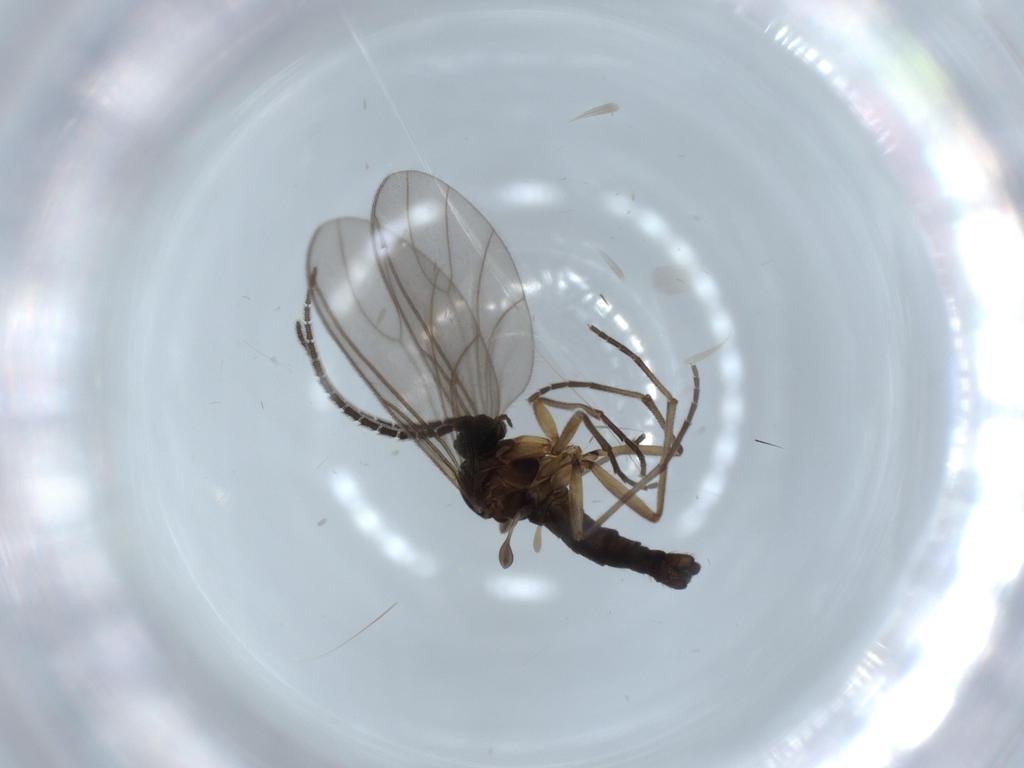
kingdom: Animalia
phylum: Arthropoda
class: Insecta
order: Diptera
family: Sciaridae
